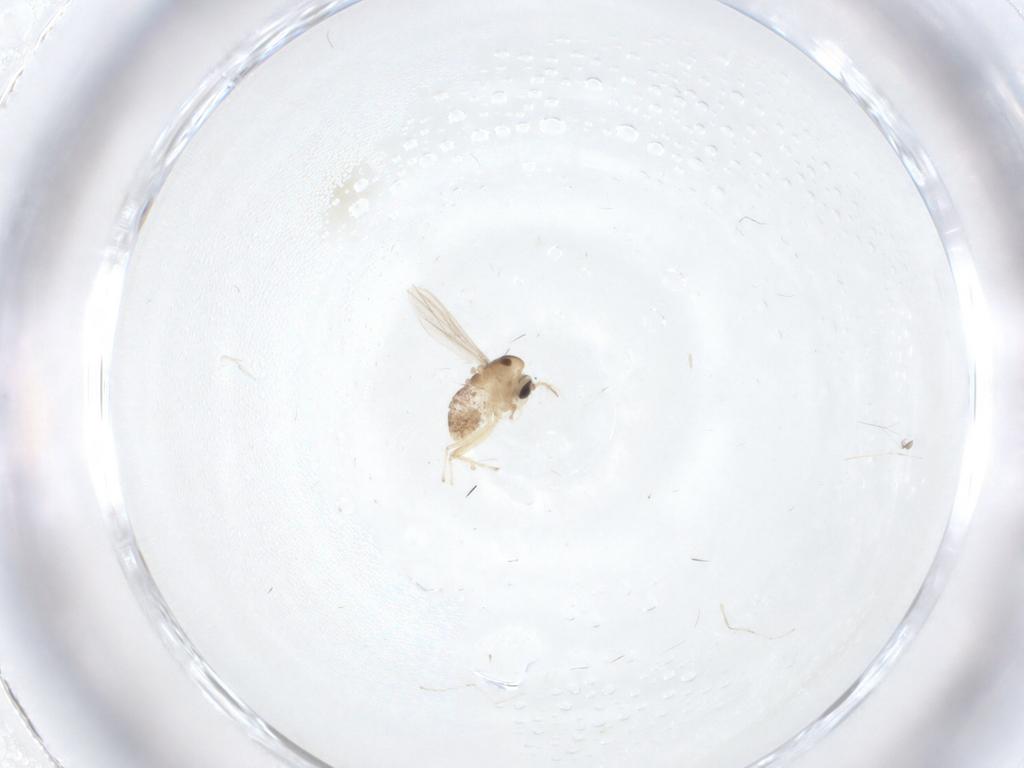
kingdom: Animalia
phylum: Arthropoda
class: Insecta
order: Diptera
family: Chironomidae
